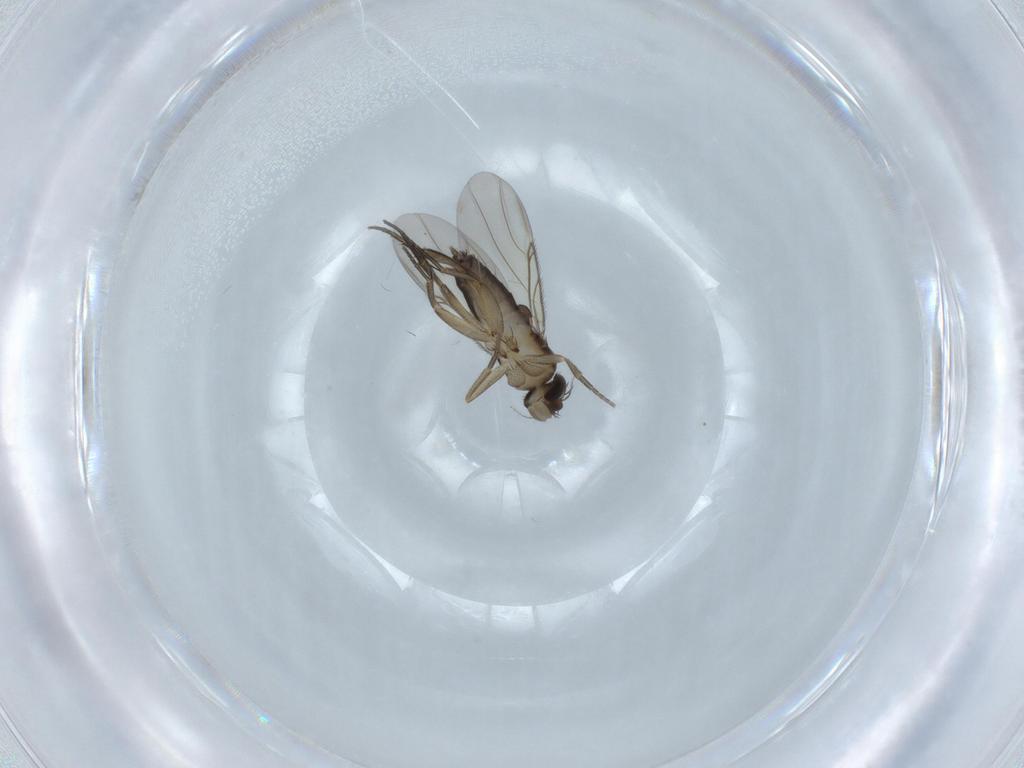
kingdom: Animalia
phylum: Arthropoda
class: Insecta
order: Diptera
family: Phoridae
